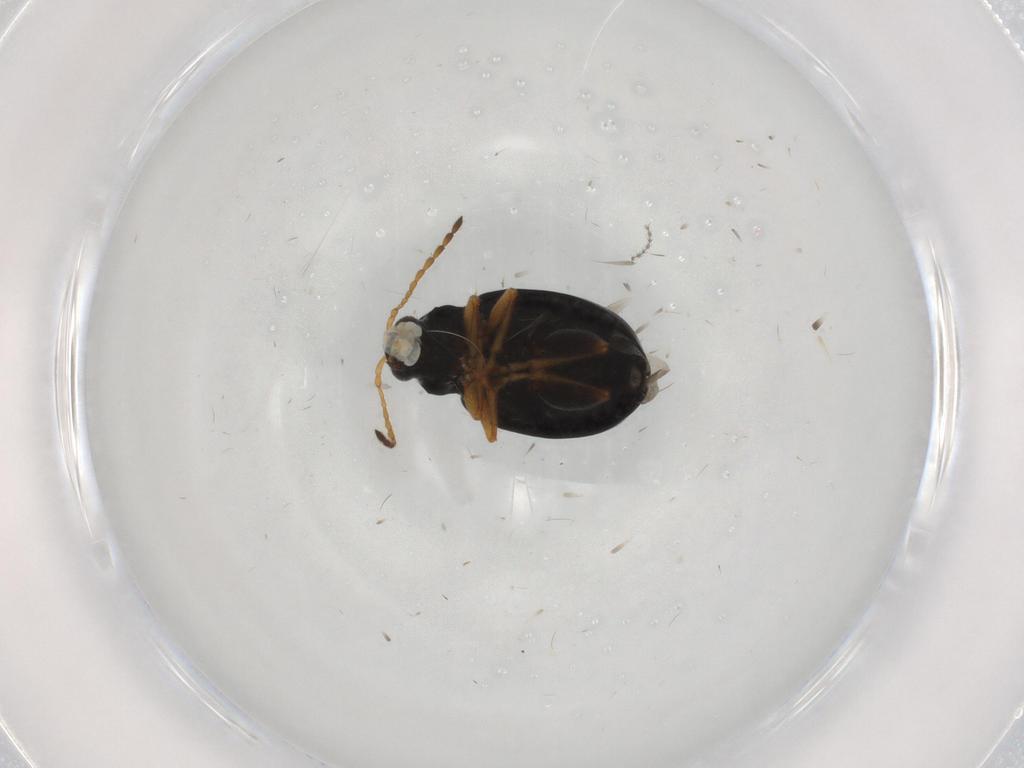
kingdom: Animalia
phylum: Arthropoda
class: Insecta
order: Coleoptera
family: Chrysomelidae
